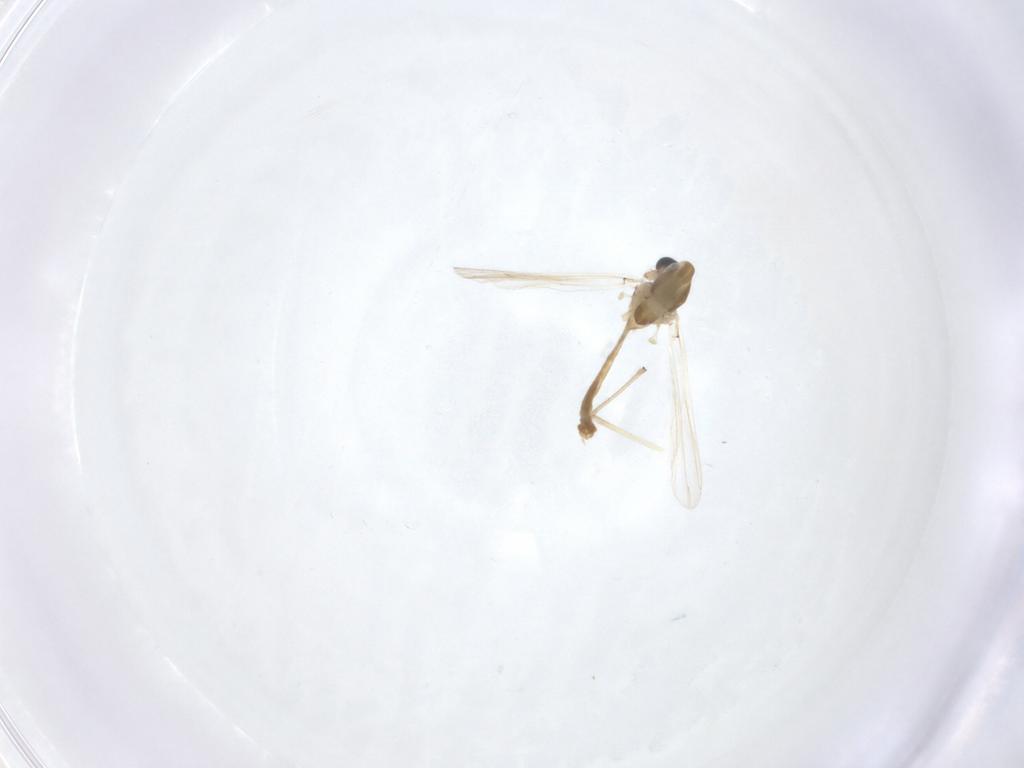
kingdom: Animalia
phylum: Arthropoda
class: Insecta
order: Diptera
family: Chironomidae
